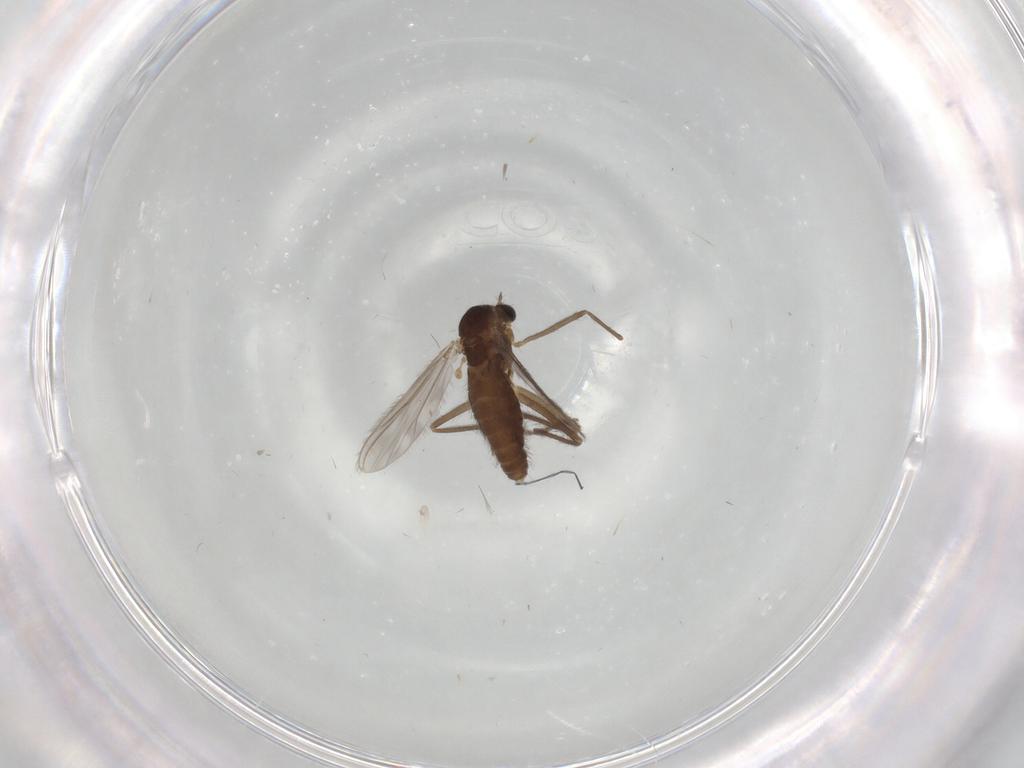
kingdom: Animalia
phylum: Arthropoda
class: Insecta
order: Diptera
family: Chironomidae
